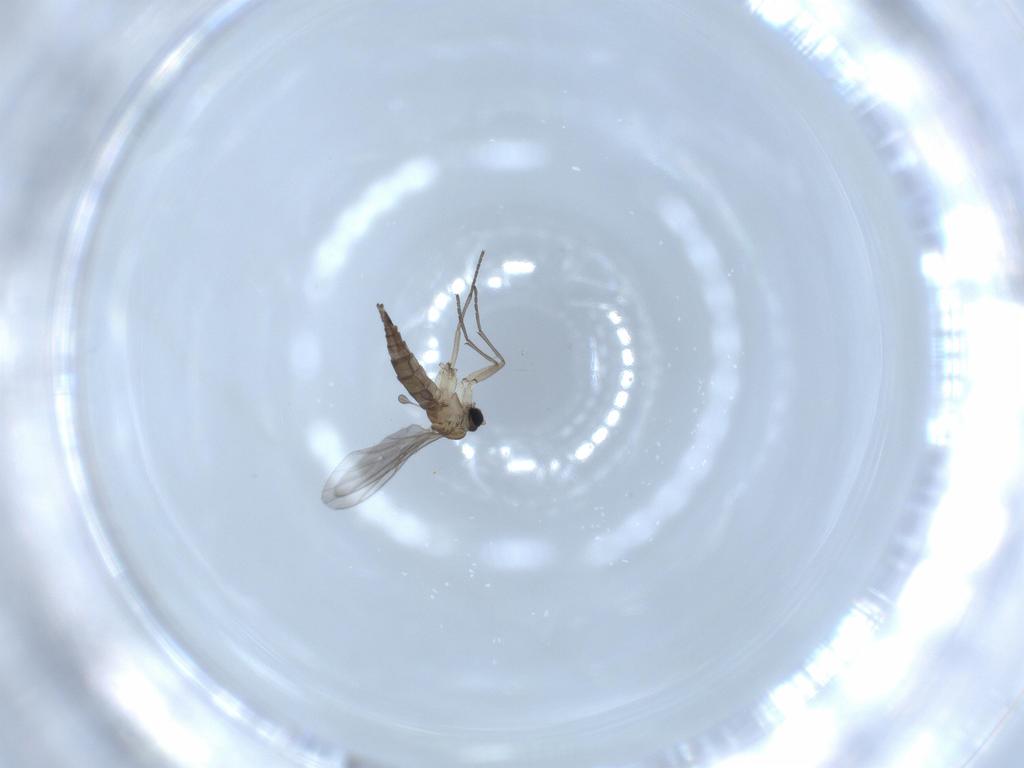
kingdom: Animalia
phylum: Arthropoda
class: Insecta
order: Diptera
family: Sciaridae
